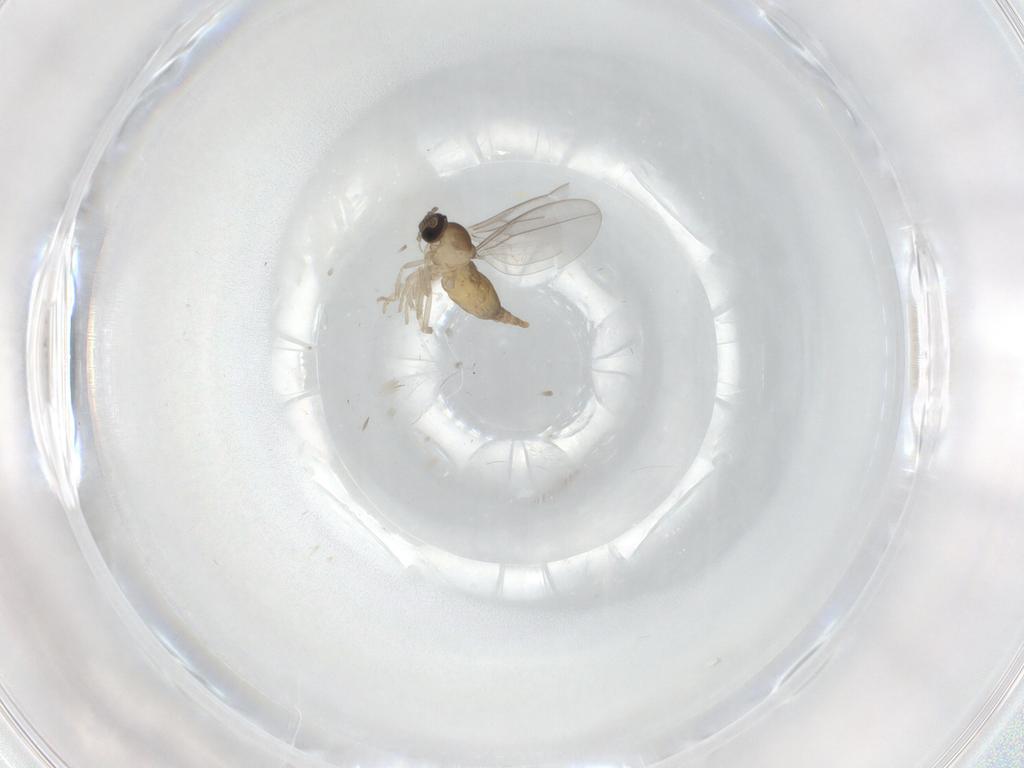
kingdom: Animalia
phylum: Arthropoda
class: Insecta
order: Diptera
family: Cecidomyiidae
